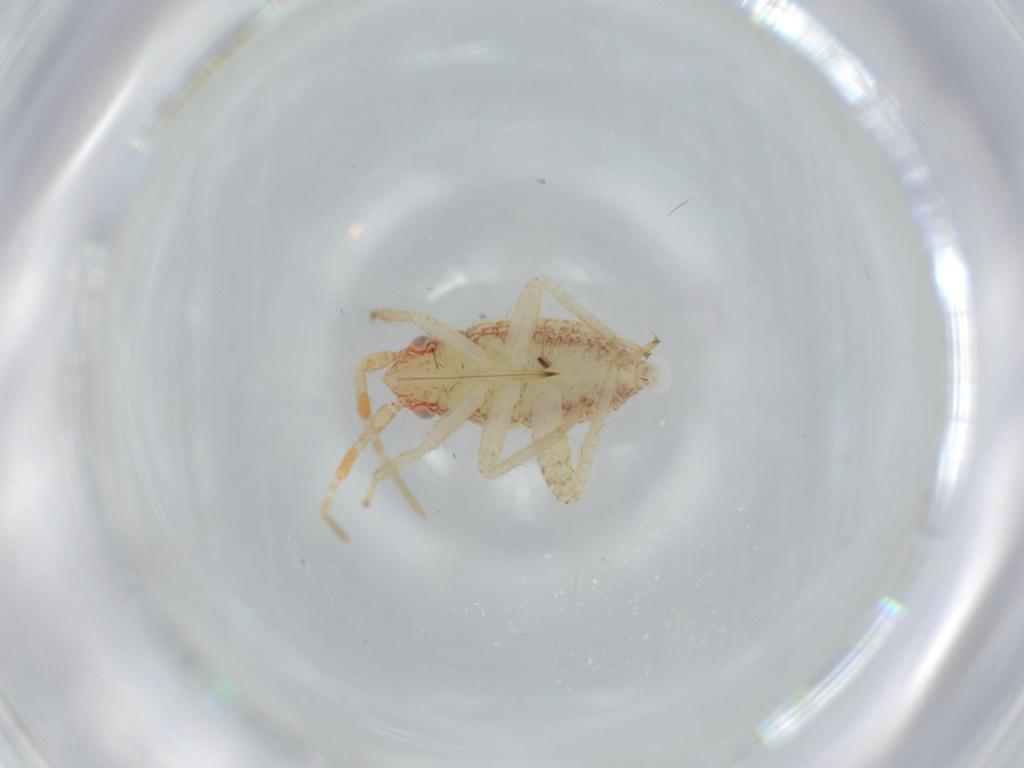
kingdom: Animalia
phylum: Arthropoda
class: Insecta
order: Hemiptera
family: Miridae
